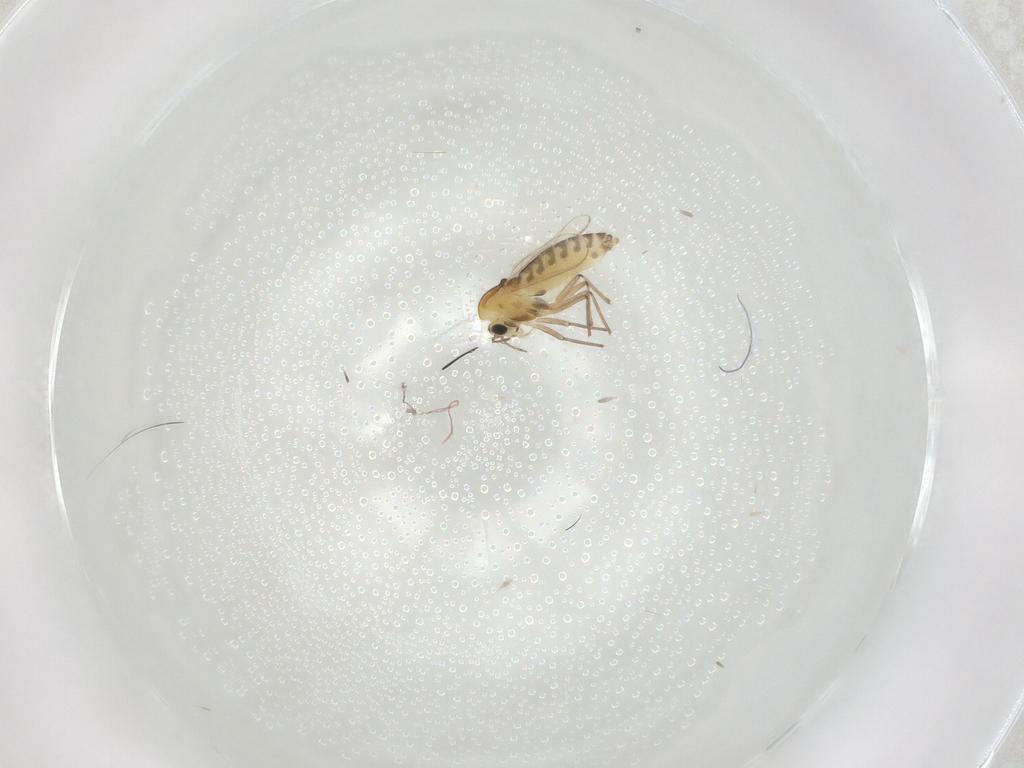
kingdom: Animalia
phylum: Arthropoda
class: Insecta
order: Diptera
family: Chironomidae
